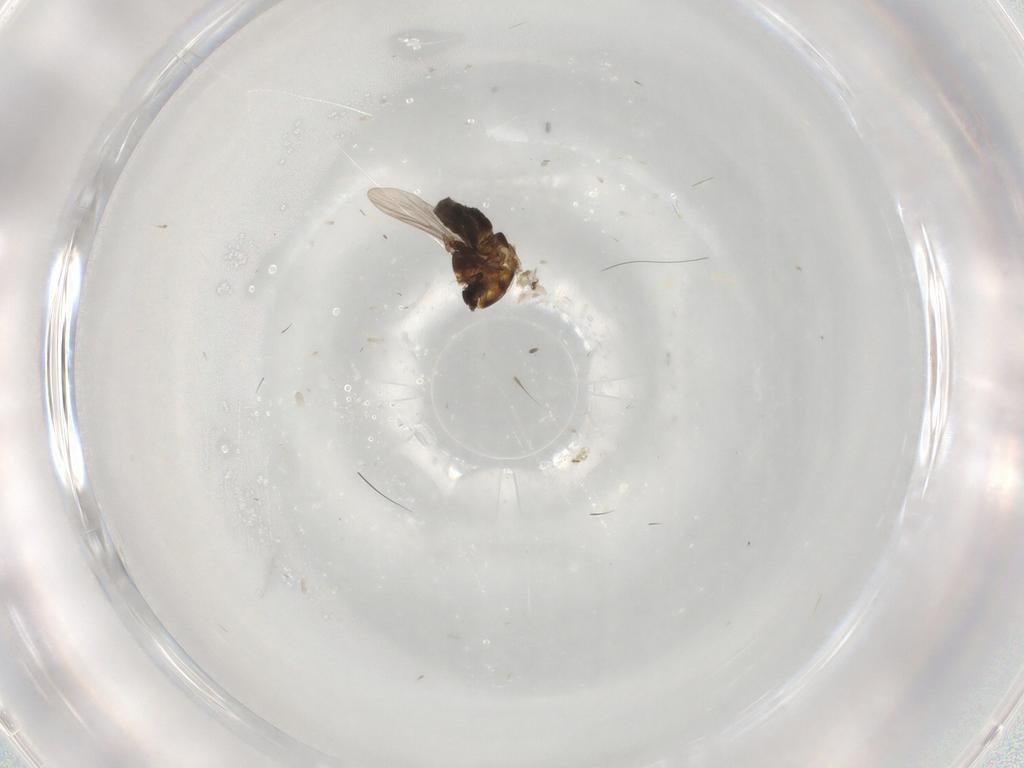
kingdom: Animalia
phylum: Arthropoda
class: Insecta
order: Diptera
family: Chironomidae
